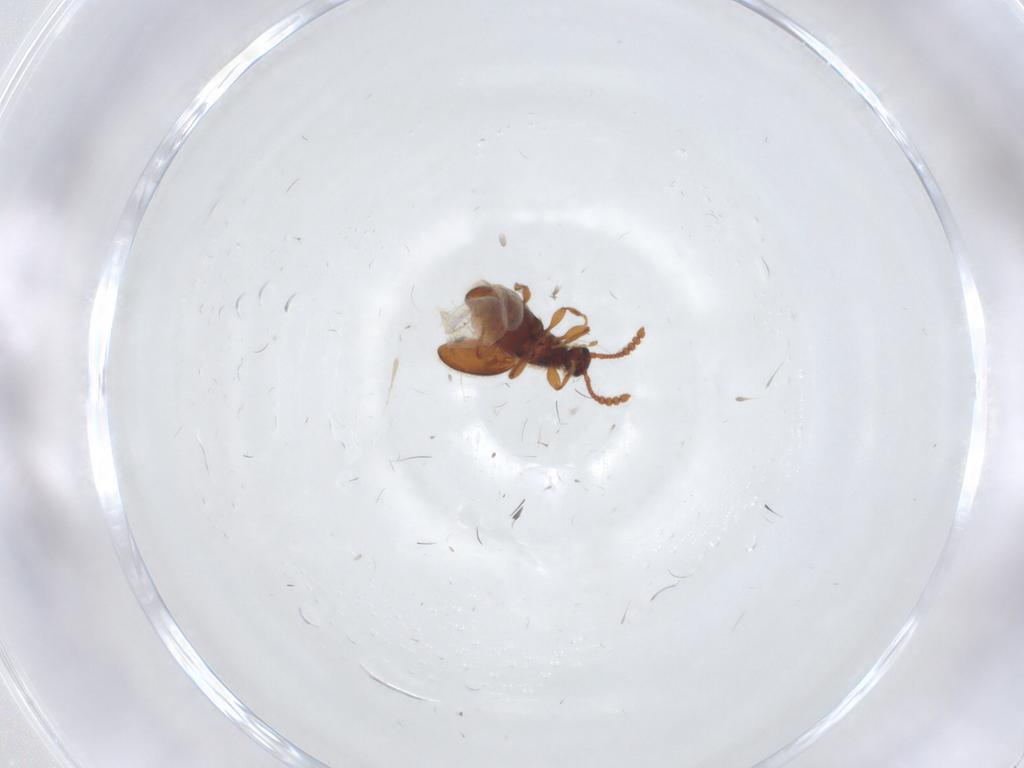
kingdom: Animalia
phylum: Arthropoda
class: Insecta
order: Coleoptera
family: Staphylinidae
